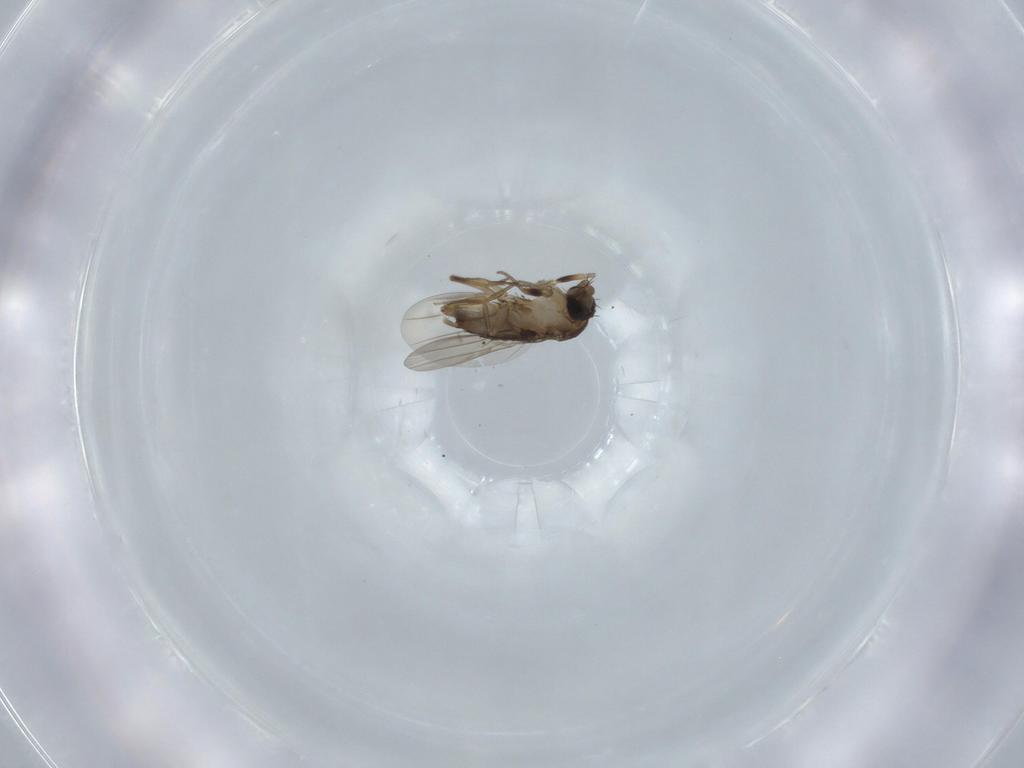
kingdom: Animalia
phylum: Arthropoda
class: Insecta
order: Diptera
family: Phoridae
